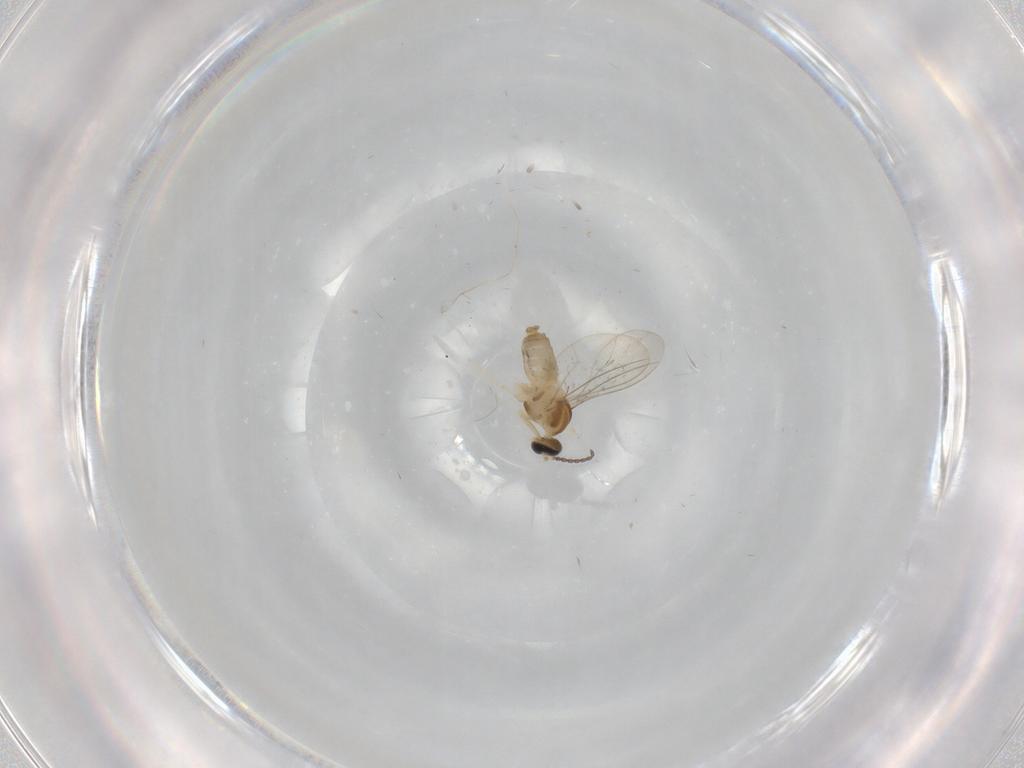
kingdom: Animalia
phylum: Arthropoda
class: Insecta
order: Diptera
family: Cecidomyiidae
